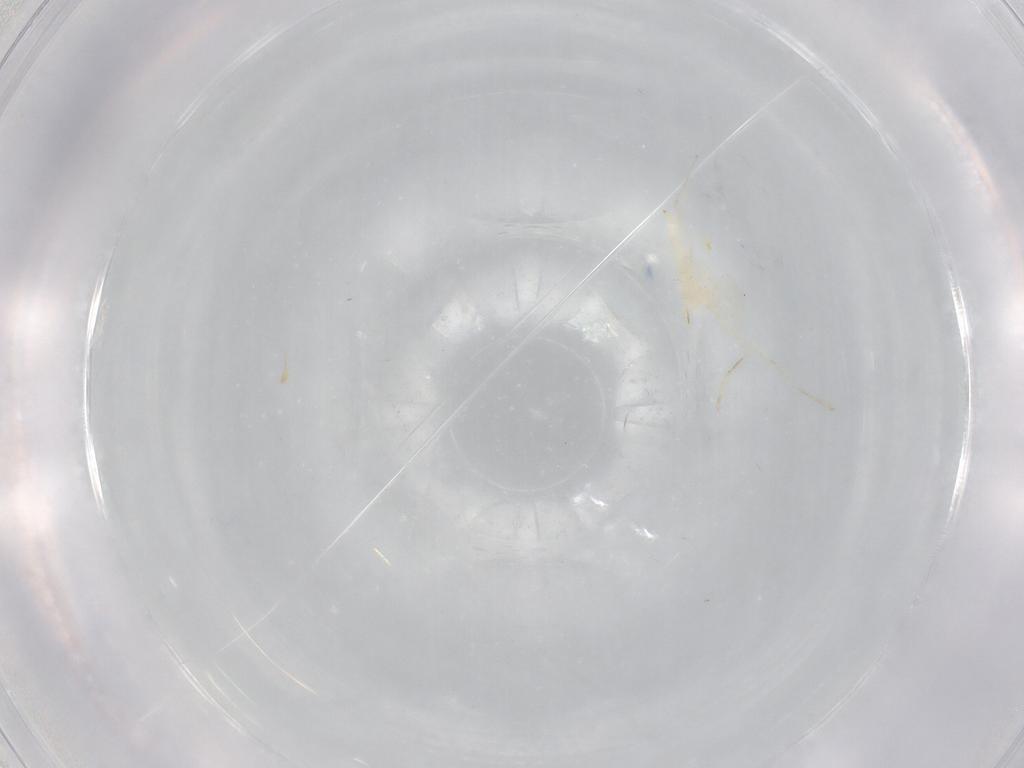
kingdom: Animalia
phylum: Arthropoda
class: Insecta
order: Diptera
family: Cecidomyiidae
